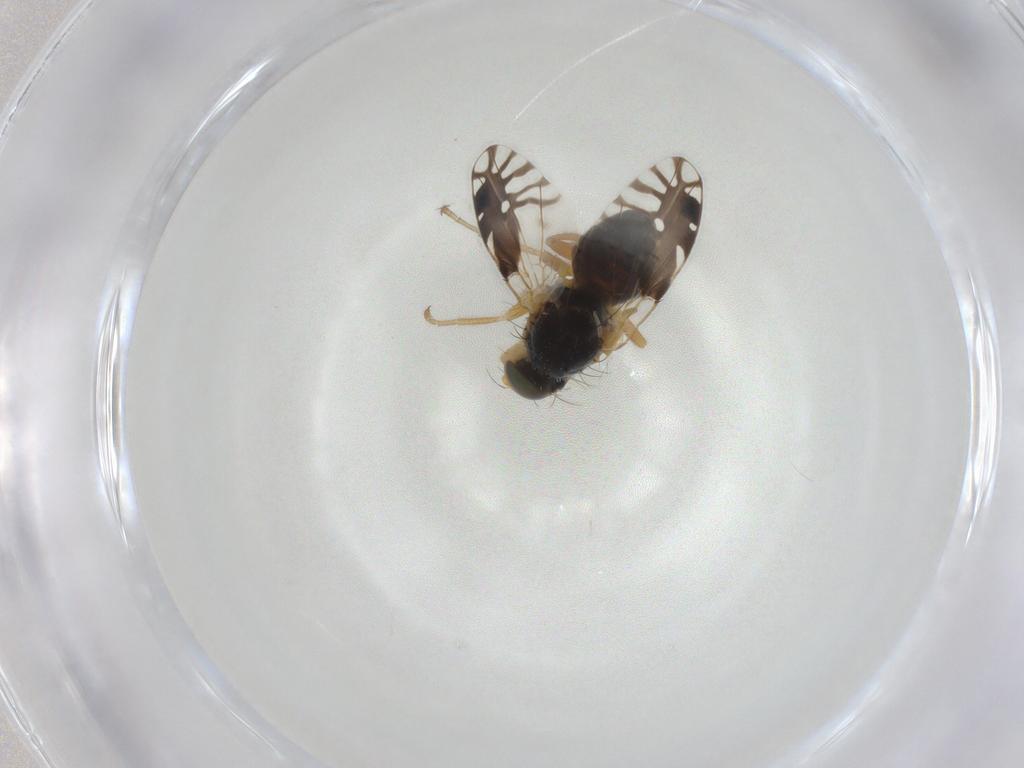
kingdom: Animalia
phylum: Arthropoda
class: Insecta
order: Diptera
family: Tephritidae
